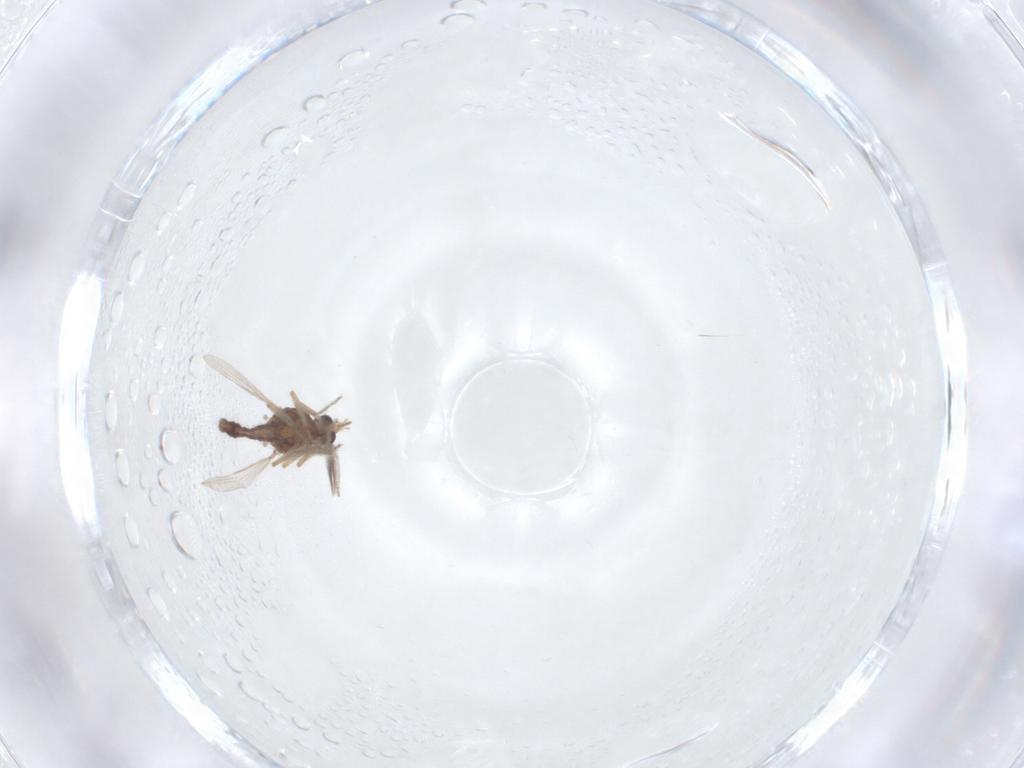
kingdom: Animalia
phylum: Arthropoda
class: Insecta
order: Diptera
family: Ceratopogonidae
